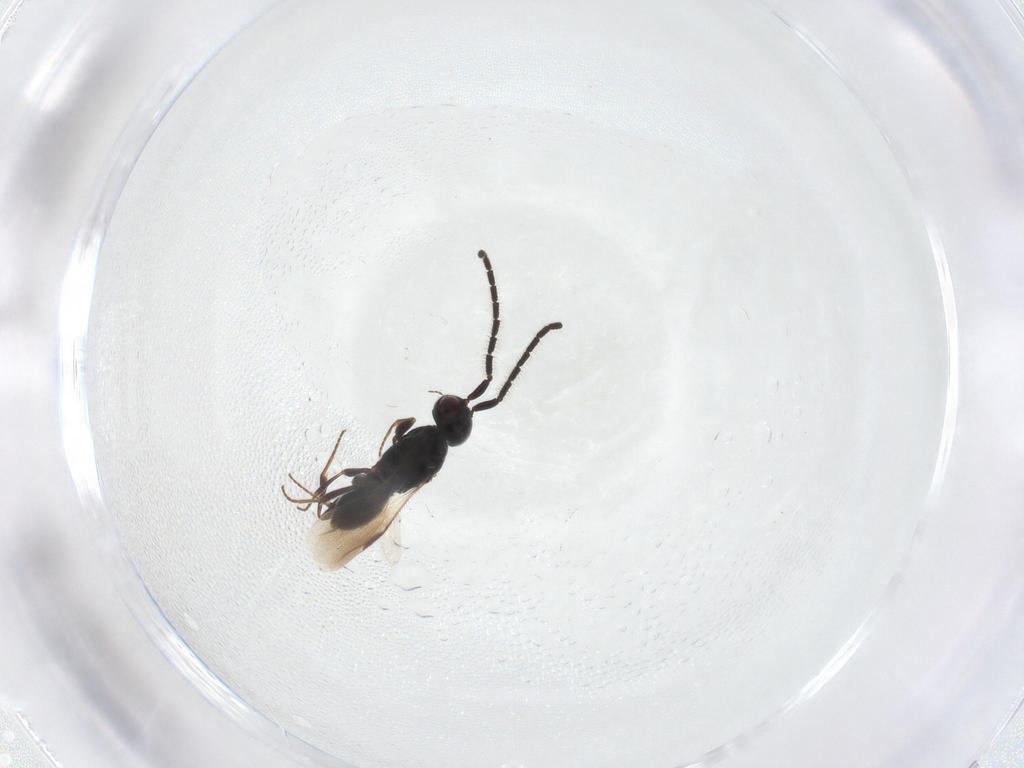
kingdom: Animalia
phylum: Arthropoda
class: Insecta
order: Hymenoptera
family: Megaspilidae
